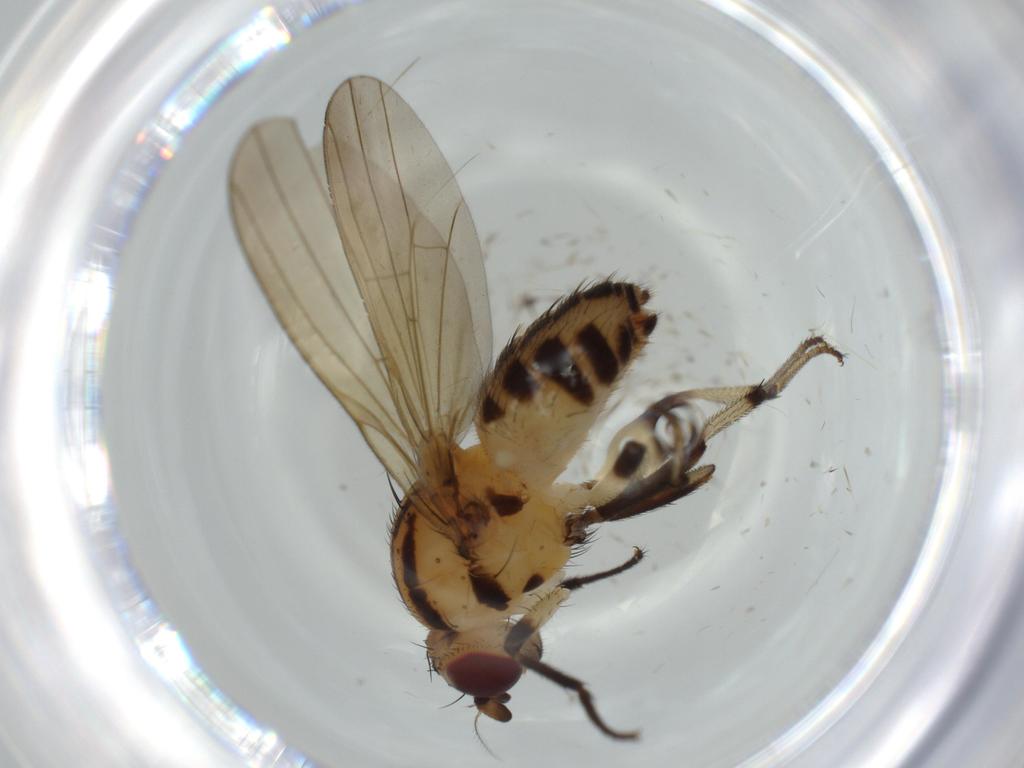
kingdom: Animalia
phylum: Arthropoda
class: Insecta
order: Diptera
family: Lauxaniidae
